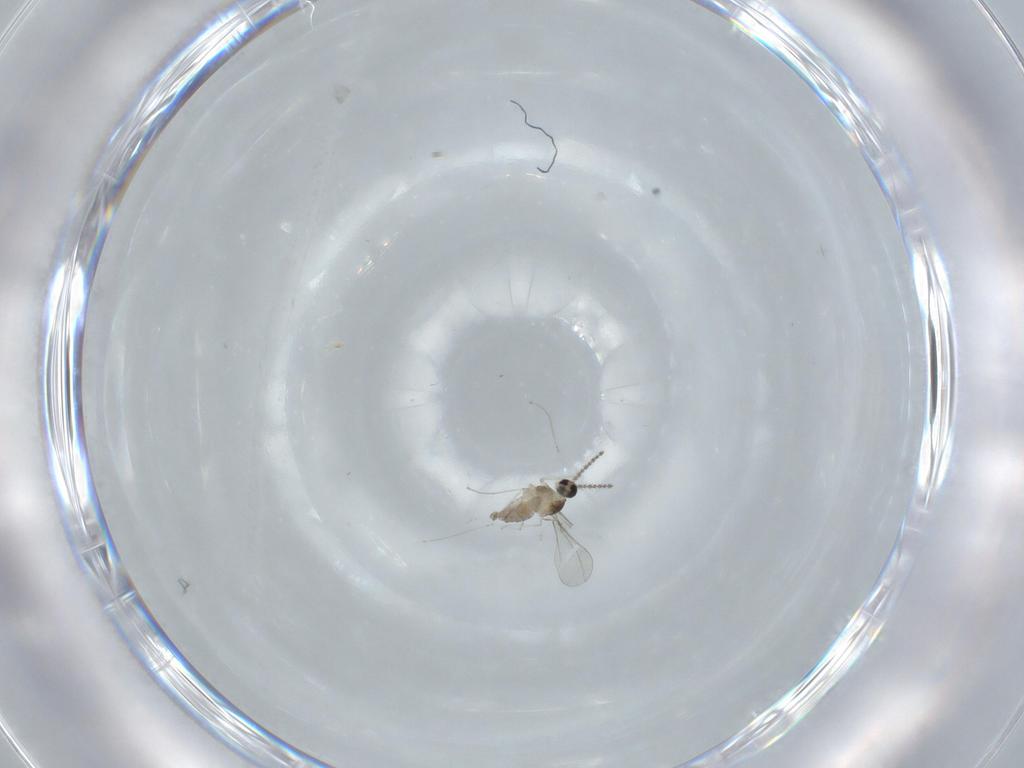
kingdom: Animalia
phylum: Arthropoda
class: Insecta
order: Diptera
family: Cecidomyiidae
